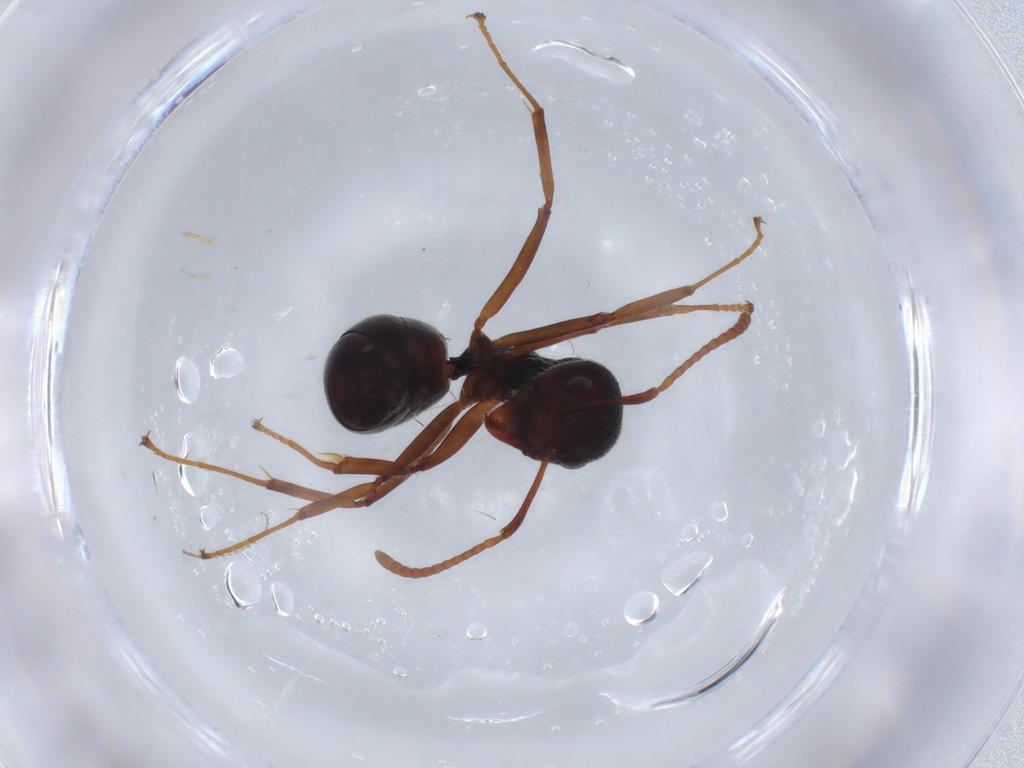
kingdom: Animalia
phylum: Arthropoda
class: Insecta
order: Hymenoptera
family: Formicidae
